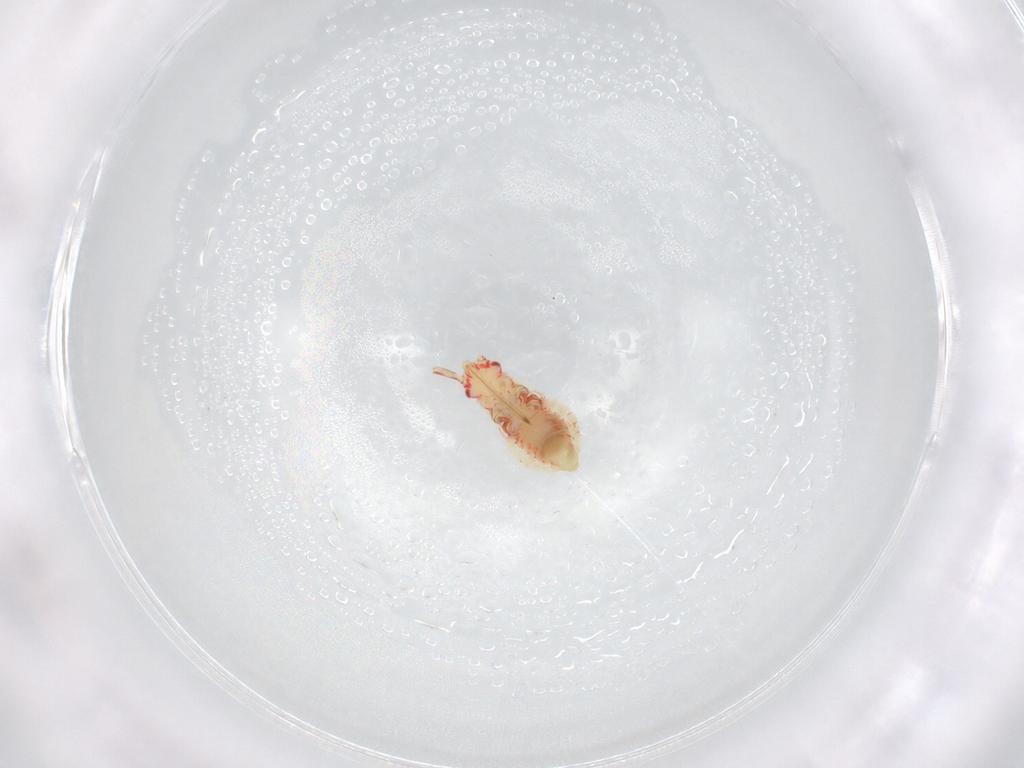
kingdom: Animalia
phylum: Arthropoda
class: Insecta
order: Hemiptera
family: Miridae
